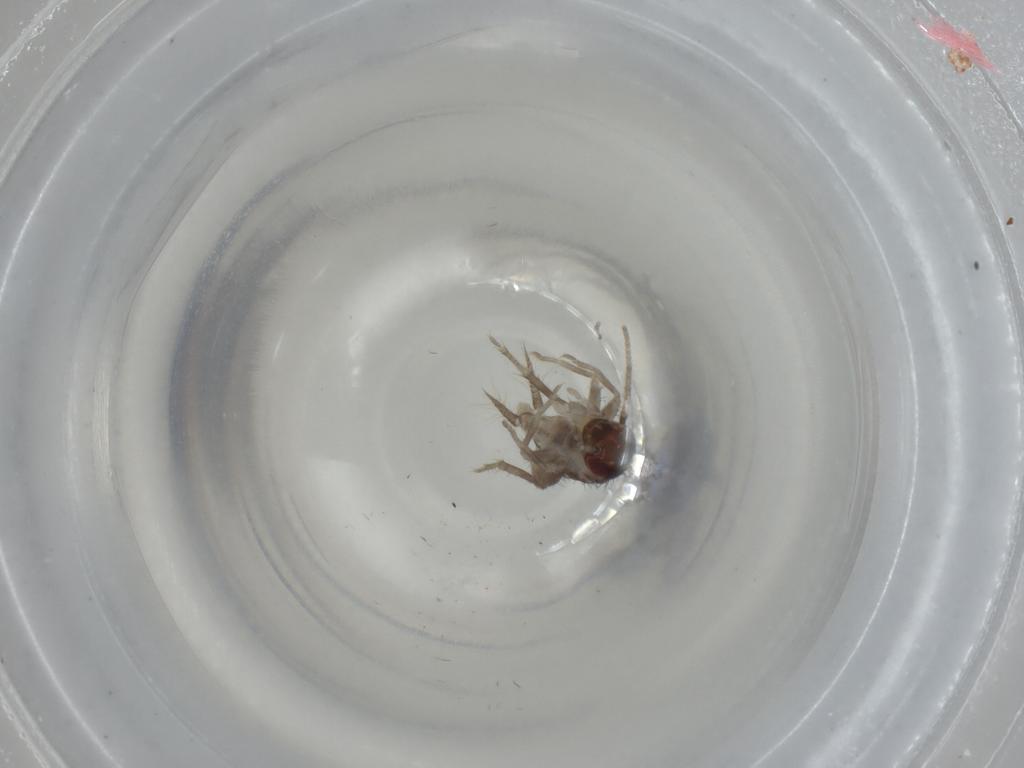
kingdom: Animalia
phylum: Arthropoda
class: Insecta
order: Orthoptera
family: Gryllidae
